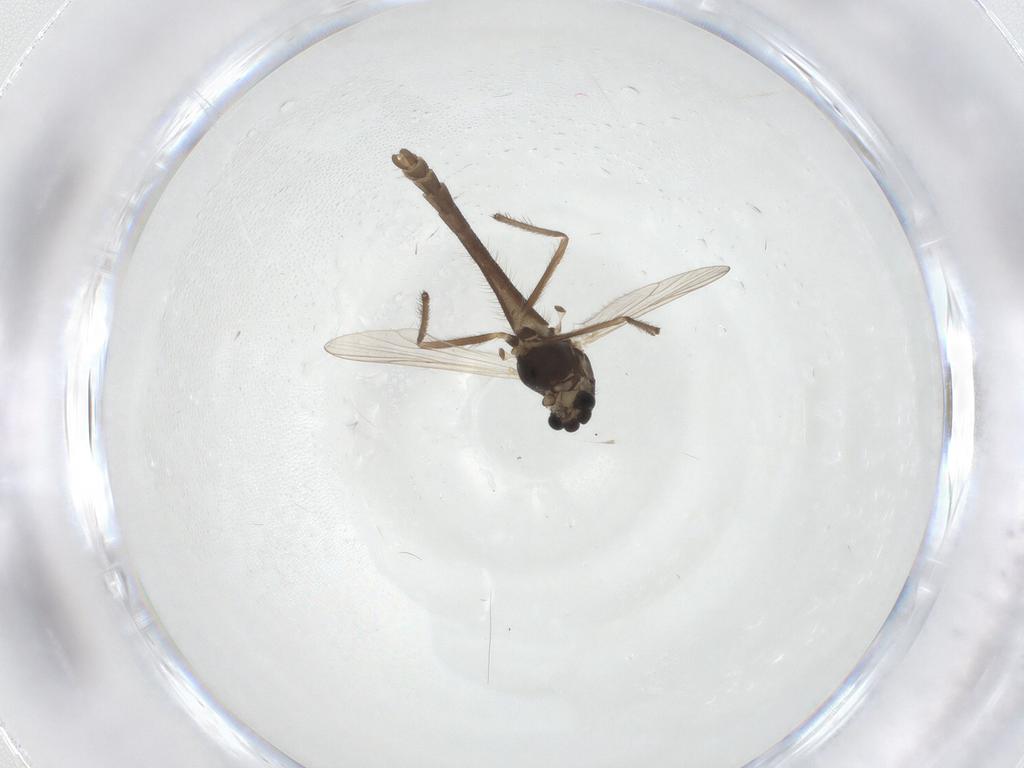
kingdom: Animalia
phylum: Arthropoda
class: Insecta
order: Diptera
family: Chironomidae
